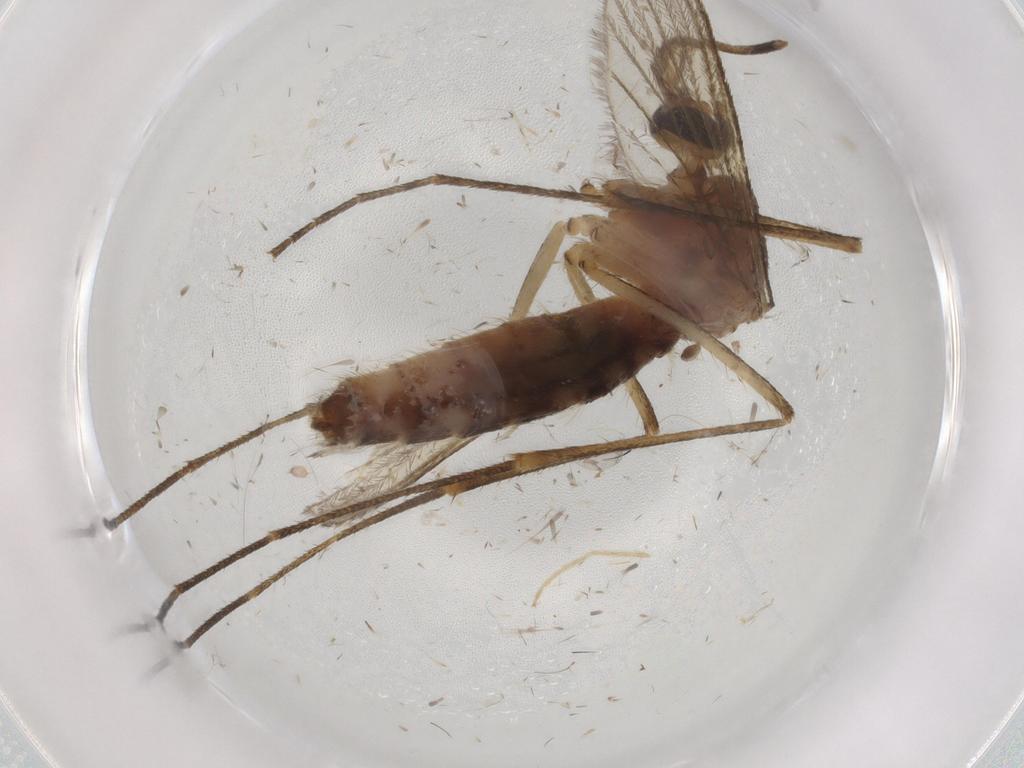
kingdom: Animalia
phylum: Arthropoda
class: Insecta
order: Diptera
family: Mycetophilidae
